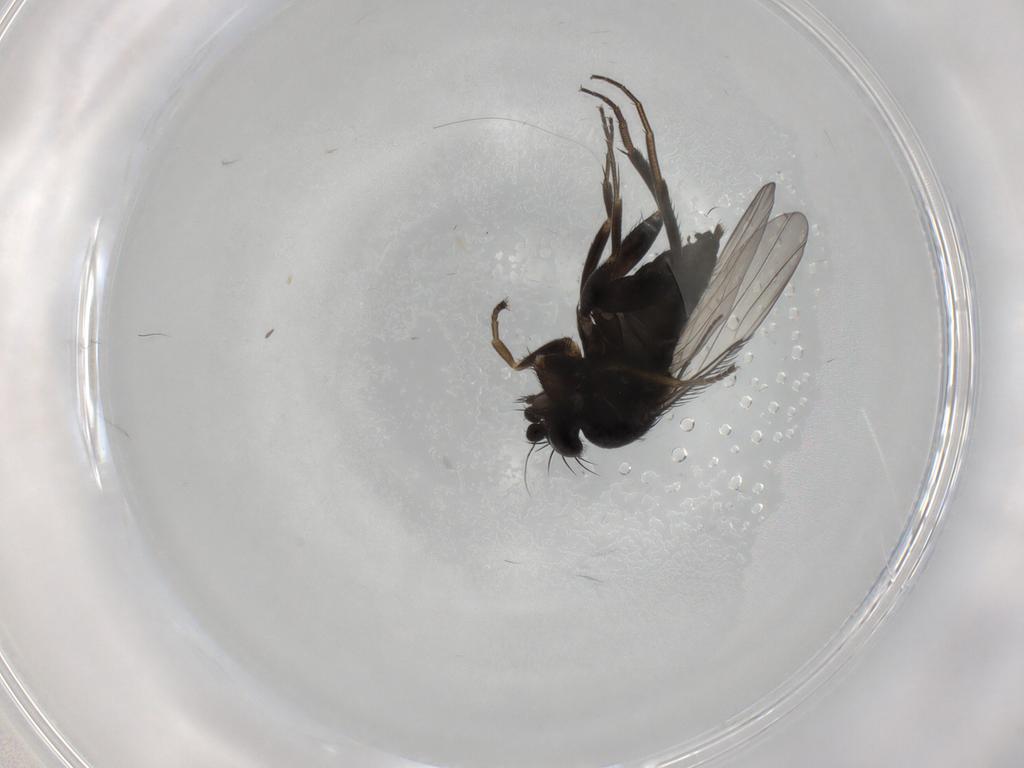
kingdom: Animalia
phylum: Arthropoda
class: Insecta
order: Diptera
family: Phoridae
